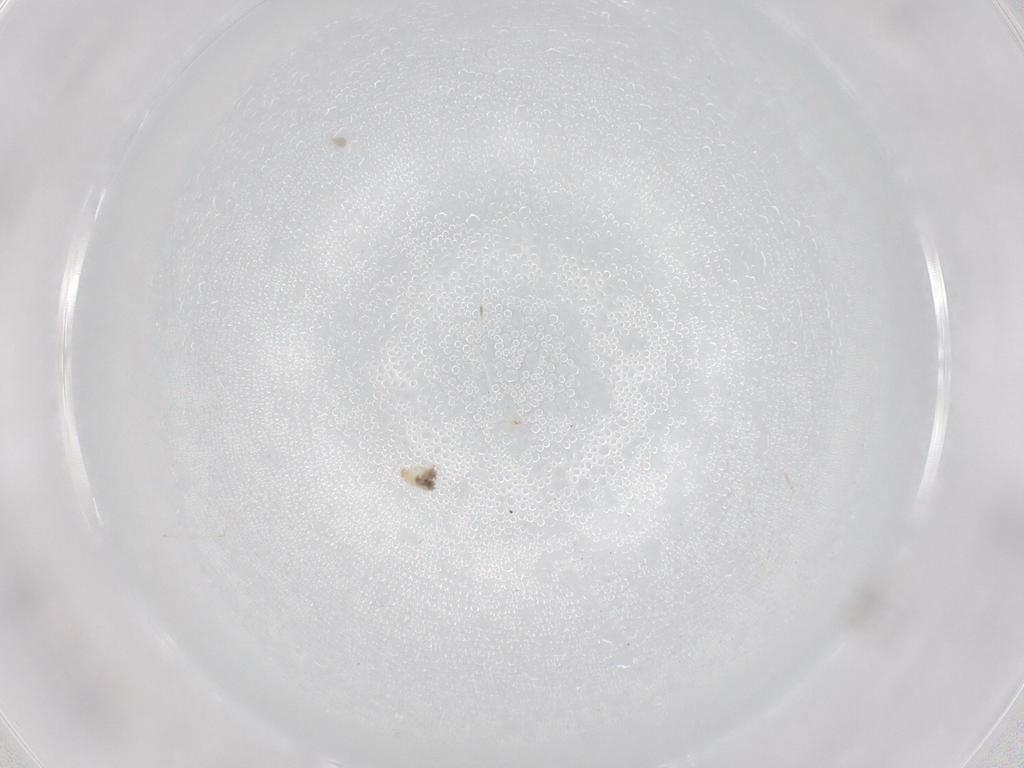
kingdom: Animalia
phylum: Arthropoda
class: Insecta
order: Diptera
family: Cecidomyiidae
